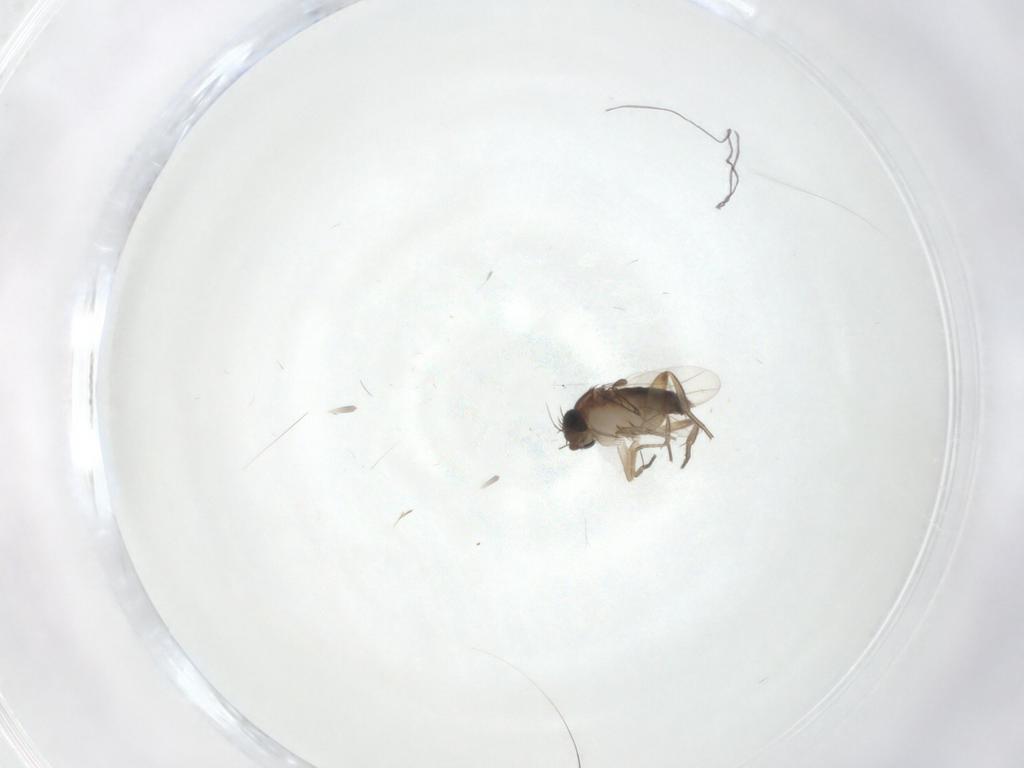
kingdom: Animalia
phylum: Arthropoda
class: Insecta
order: Diptera
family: Phoridae
